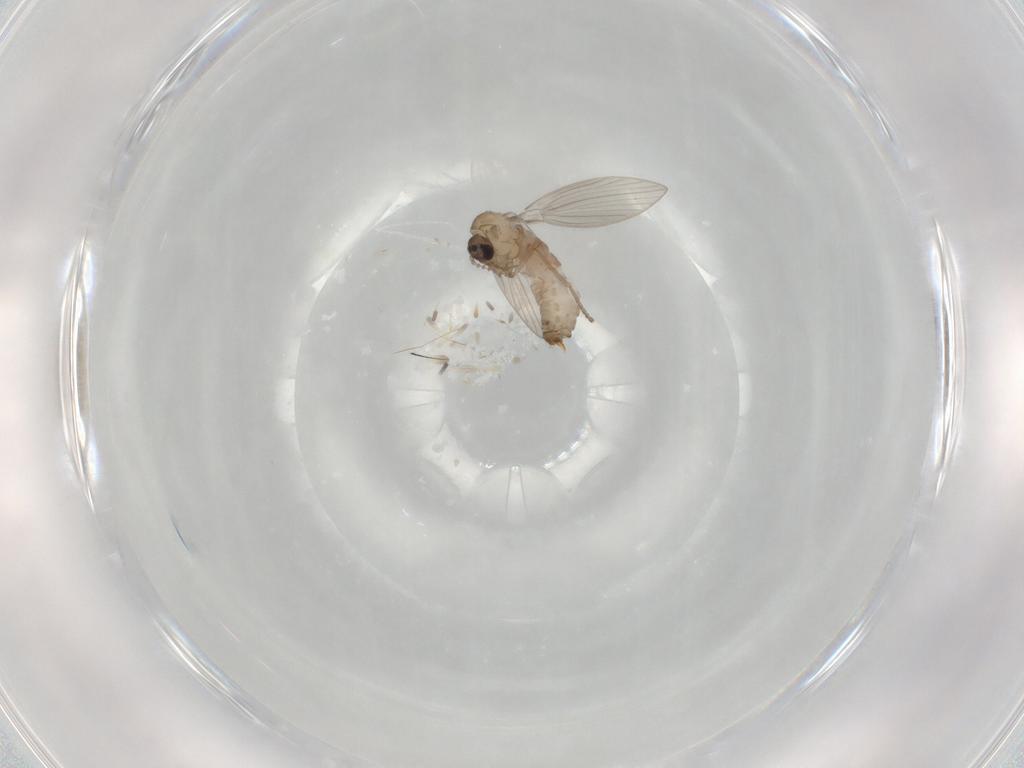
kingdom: Animalia
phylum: Arthropoda
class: Insecta
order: Diptera
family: Psychodidae
